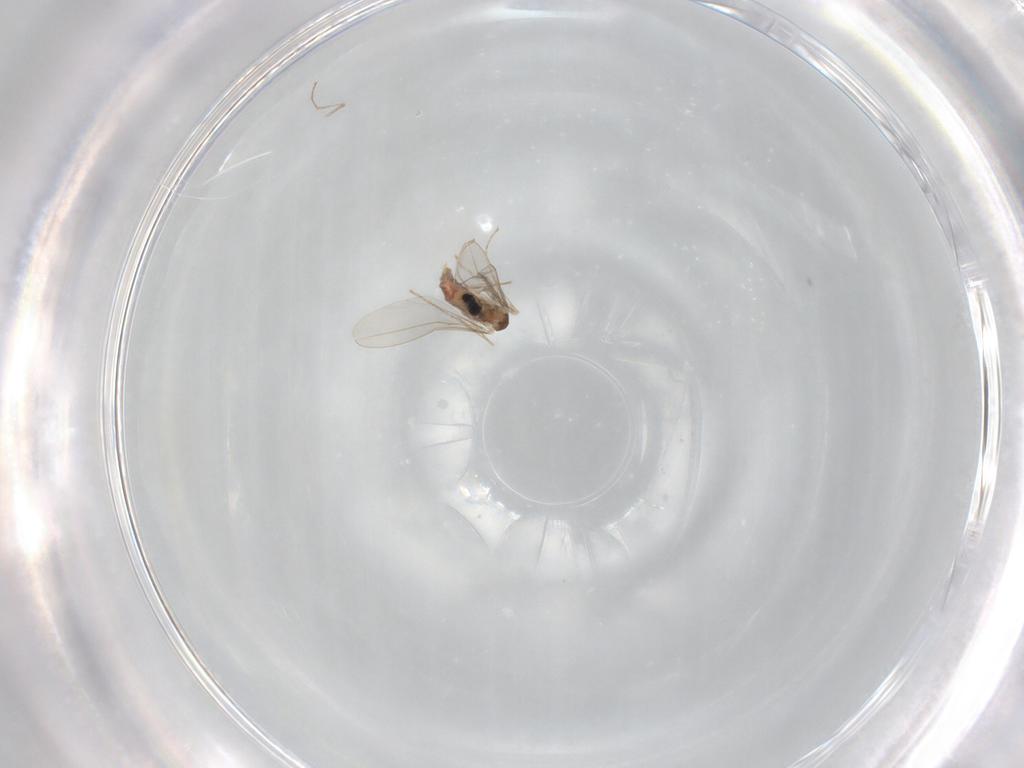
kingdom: Animalia
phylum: Arthropoda
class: Insecta
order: Diptera
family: Cecidomyiidae
